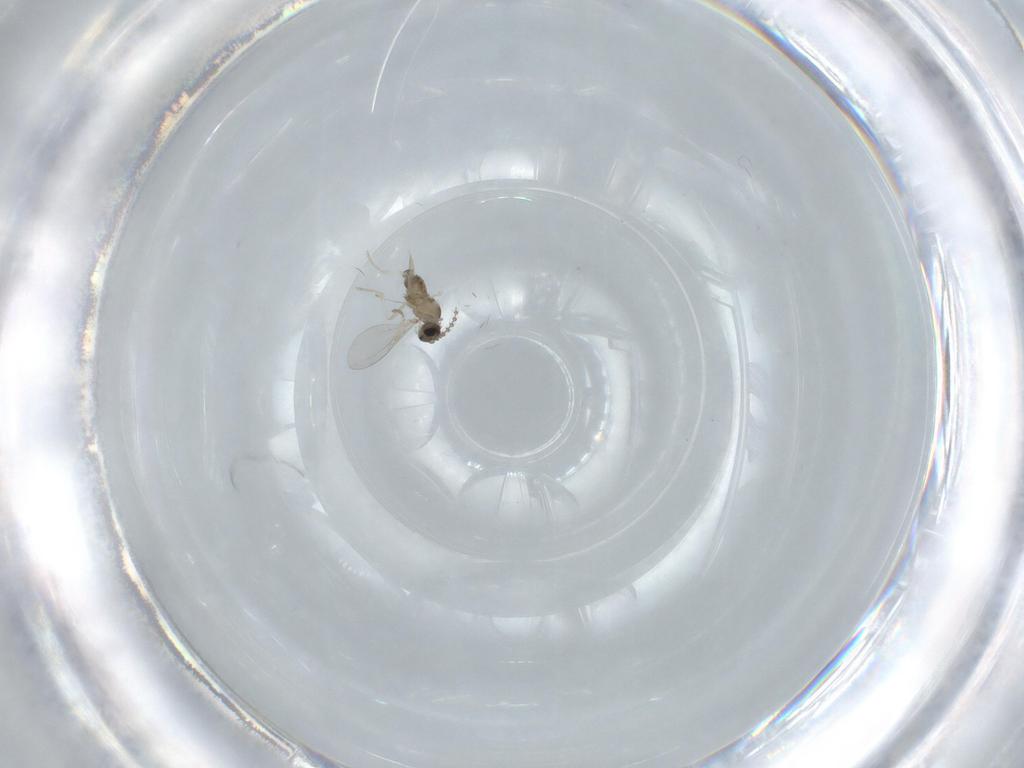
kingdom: Animalia
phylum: Arthropoda
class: Insecta
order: Diptera
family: Cecidomyiidae
